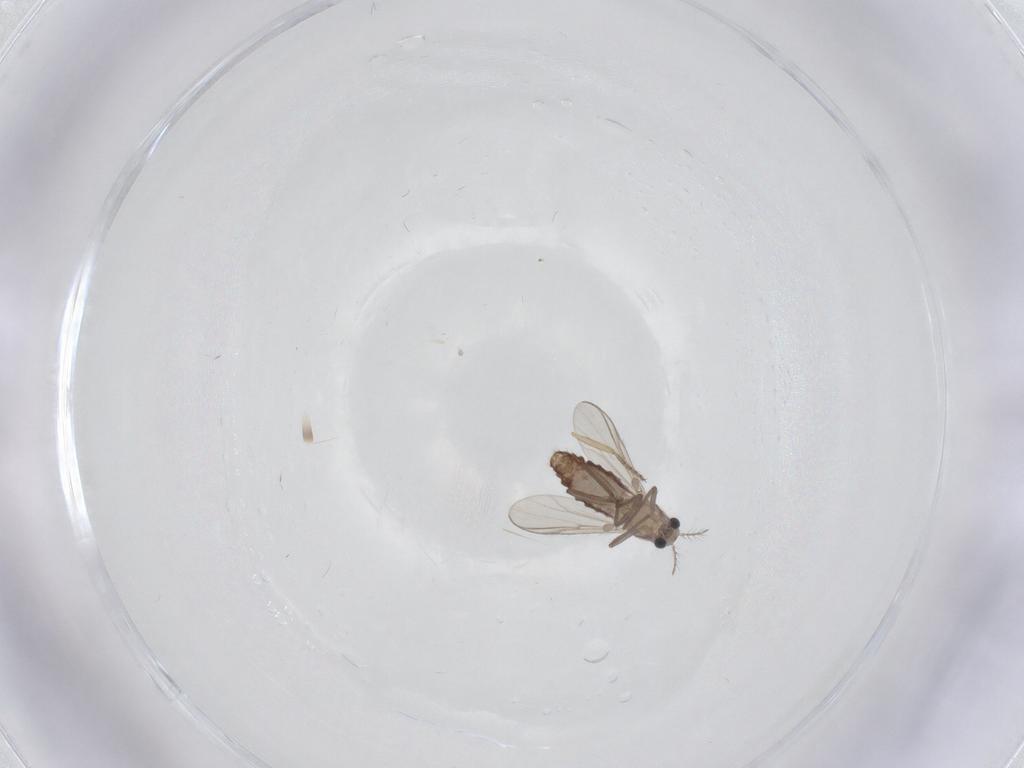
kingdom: Animalia
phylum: Arthropoda
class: Insecta
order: Diptera
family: Chironomidae
